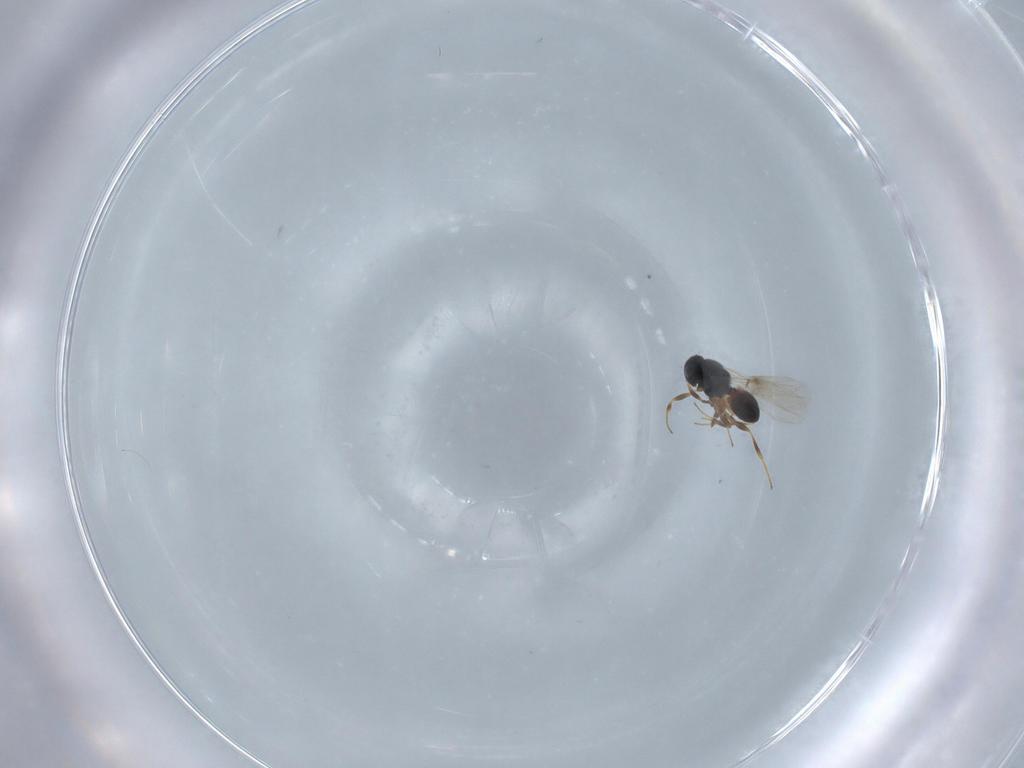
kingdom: Animalia
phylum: Arthropoda
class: Insecta
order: Hymenoptera
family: Platygastridae
